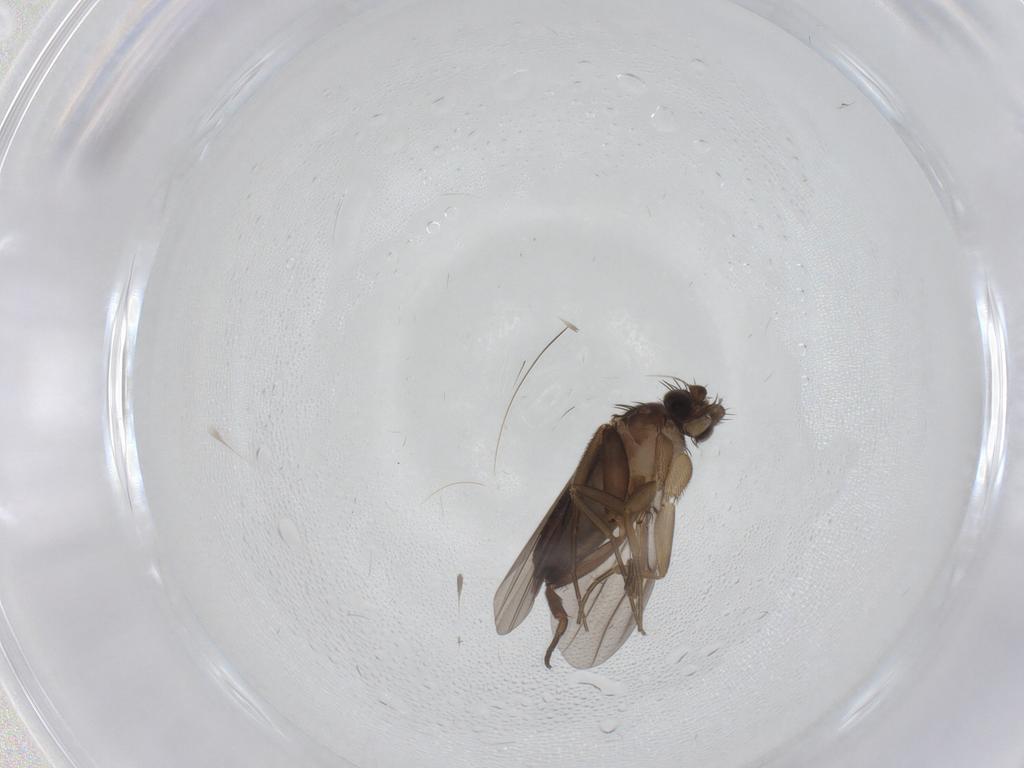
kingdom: Animalia
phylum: Arthropoda
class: Insecta
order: Diptera
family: Phoridae
